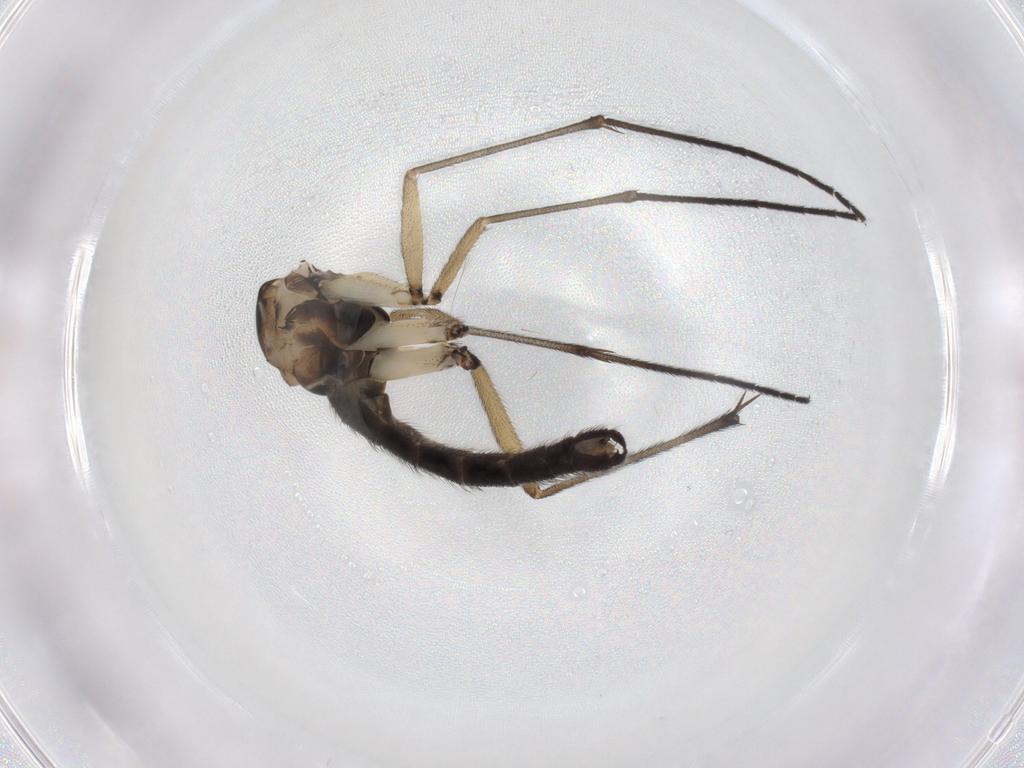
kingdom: Animalia
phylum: Arthropoda
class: Insecta
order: Diptera
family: Sciaridae
